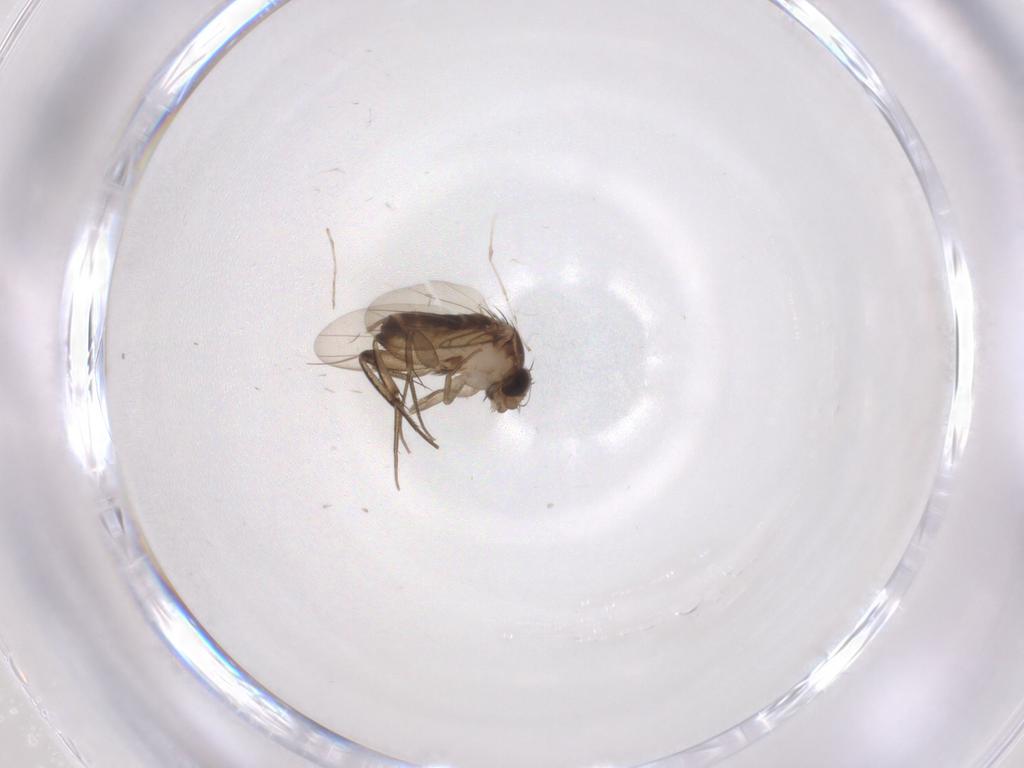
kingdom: Animalia
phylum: Arthropoda
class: Insecta
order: Diptera
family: Phoridae
